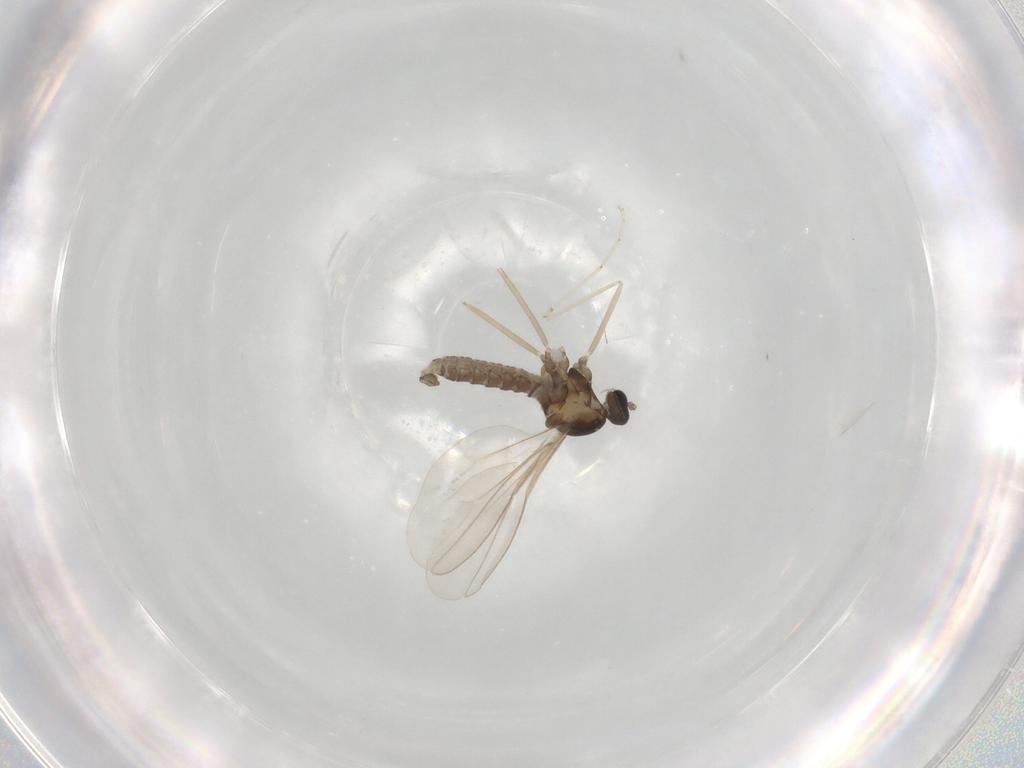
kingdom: Animalia
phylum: Arthropoda
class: Insecta
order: Diptera
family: Cecidomyiidae
